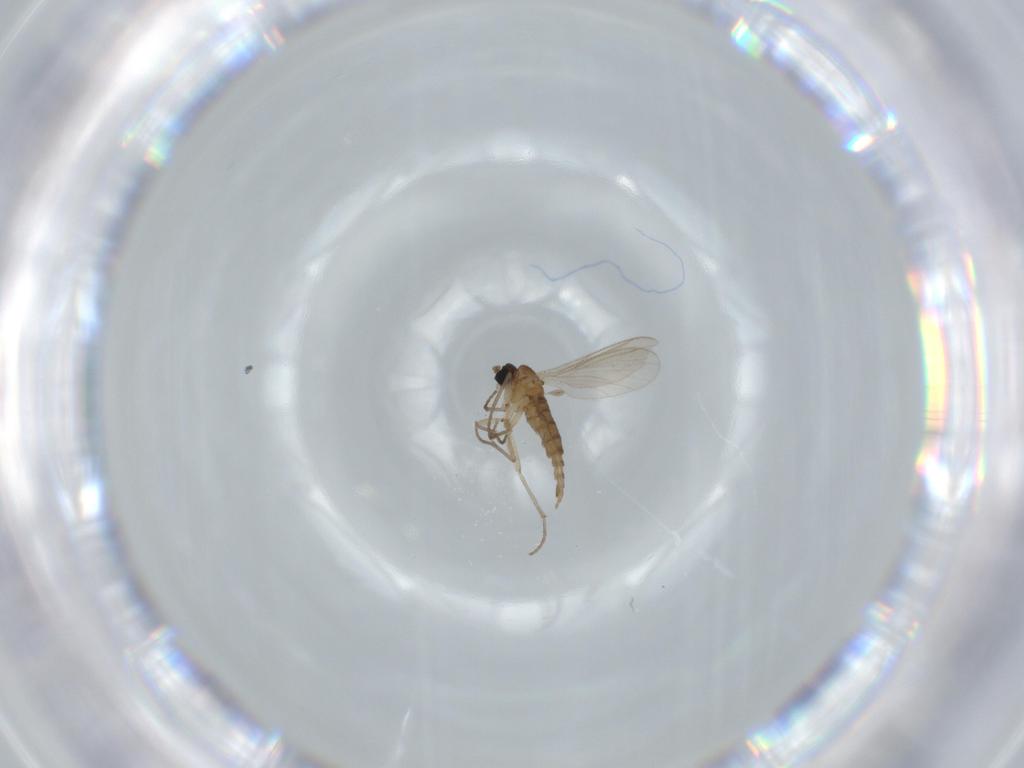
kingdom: Animalia
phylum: Arthropoda
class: Insecta
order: Diptera
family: Sciaridae
